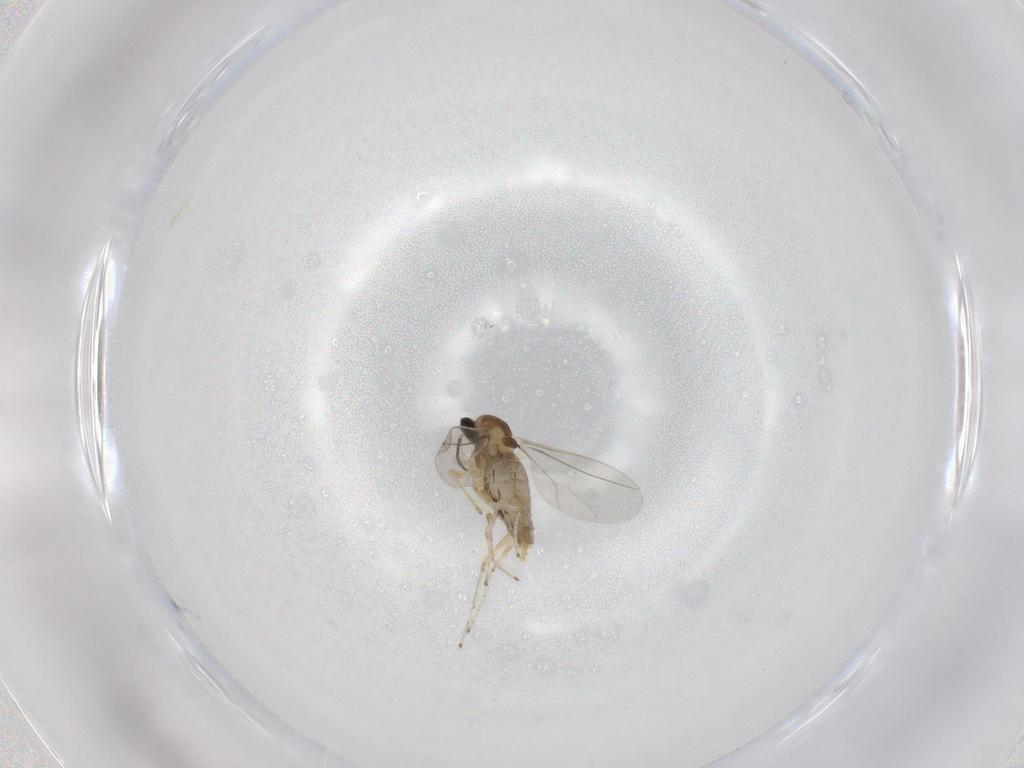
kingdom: Animalia
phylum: Arthropoda
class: Insecta
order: Diptera
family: Cecidomyiidae
